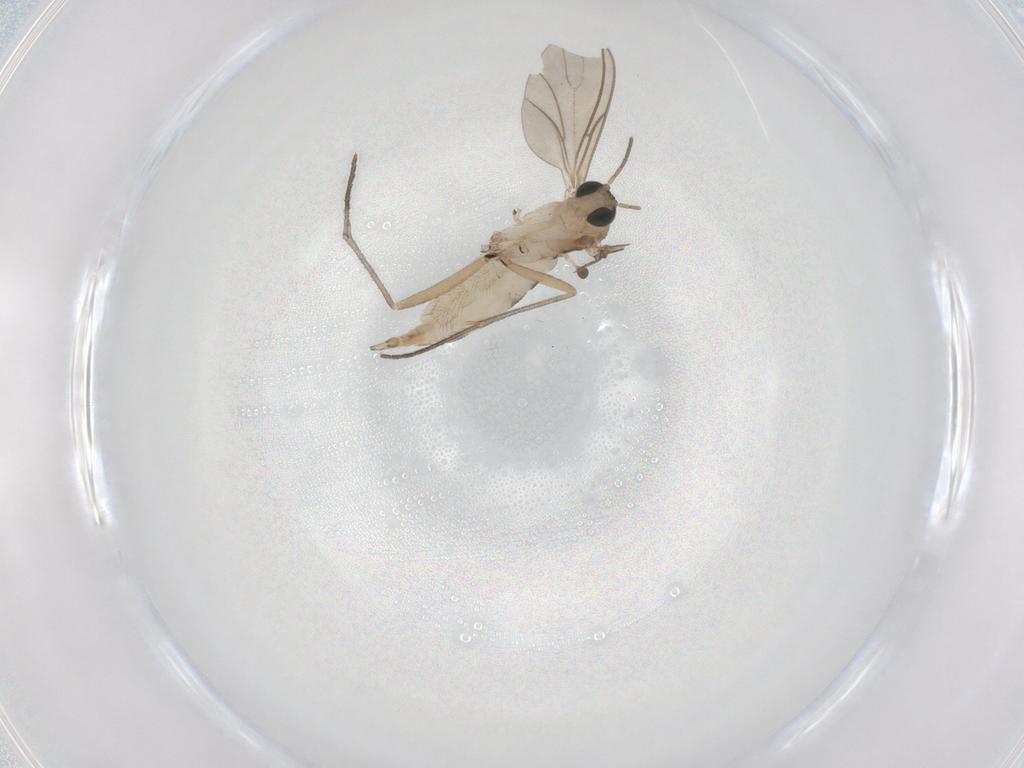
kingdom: Animalia
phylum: Arthropoda
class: Insecta
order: Diptera
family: Sciaridae
